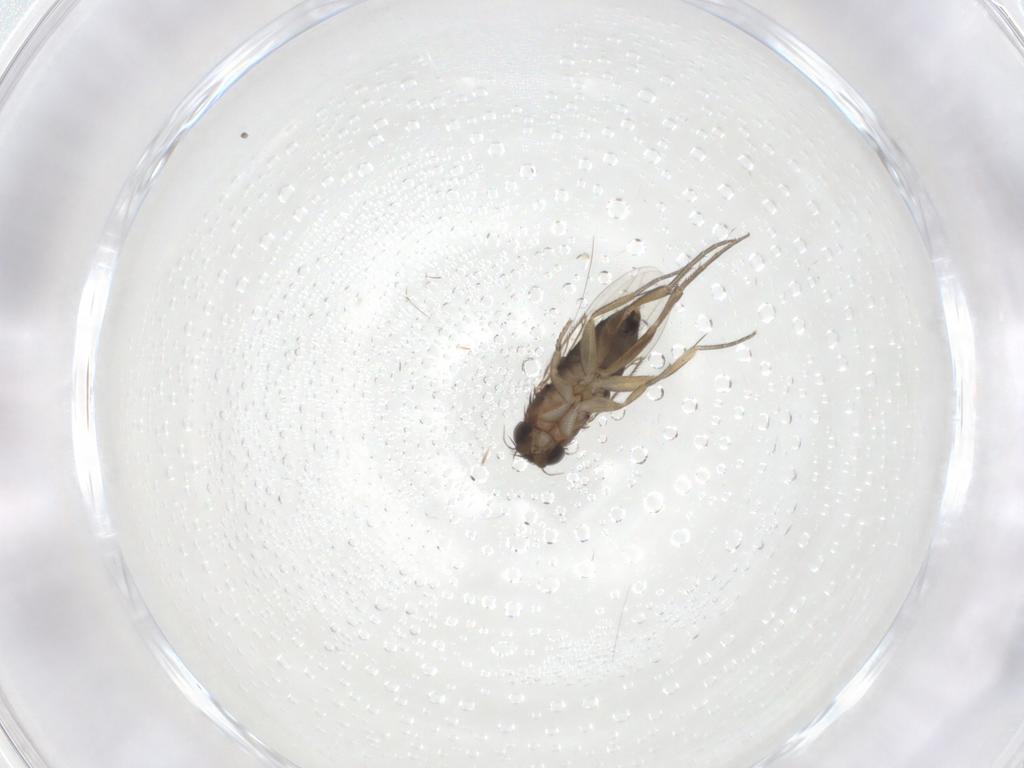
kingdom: Animalia
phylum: Arthropoda
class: Insecta
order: Diptera
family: Phoridae
